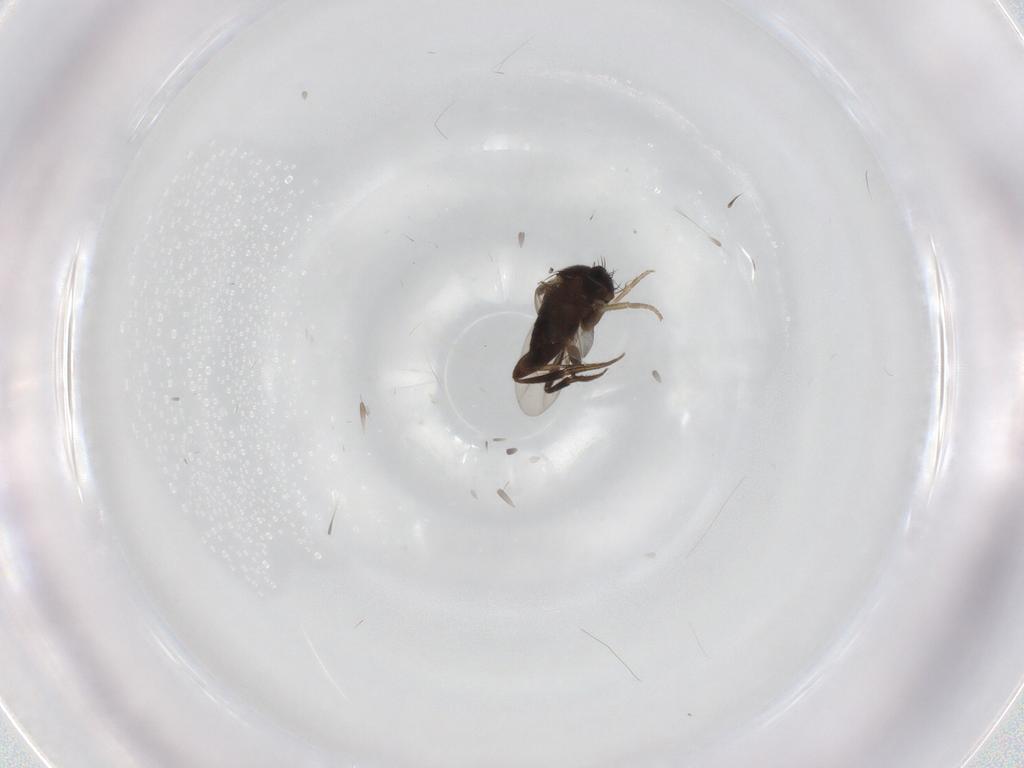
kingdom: Animalia
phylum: Arthropoda
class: Insecta
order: Diptera
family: Phoridae
